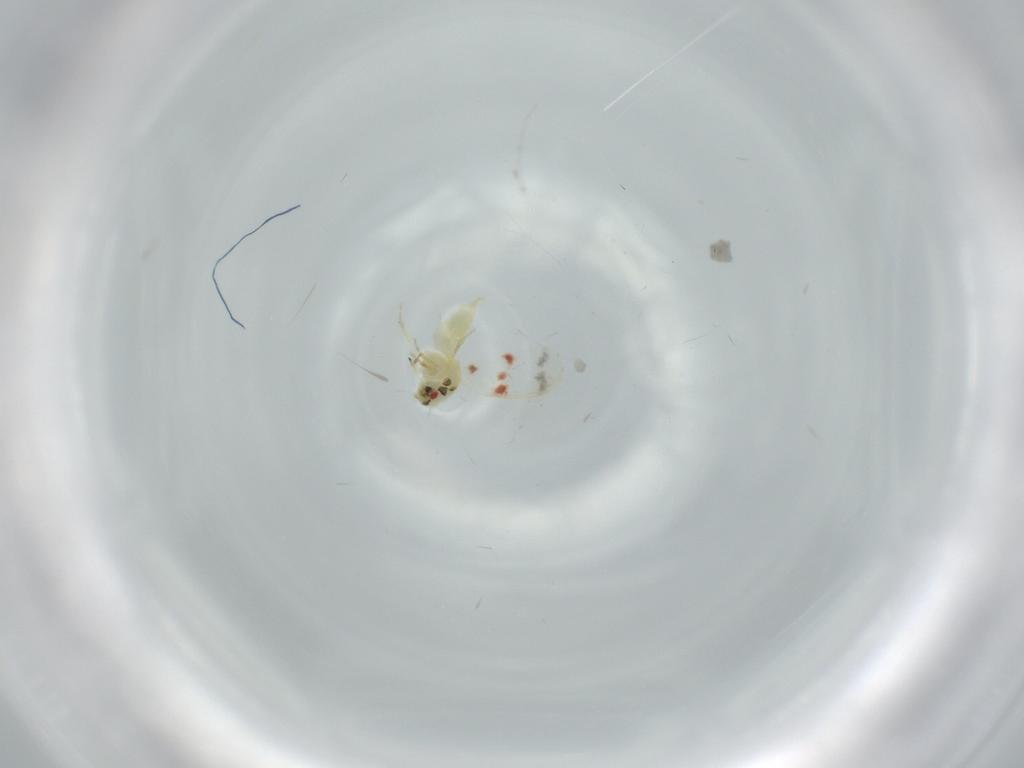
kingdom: Animalia
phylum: Arthropoda
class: Insecta
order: Hemiptera
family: Aleyrodidae
